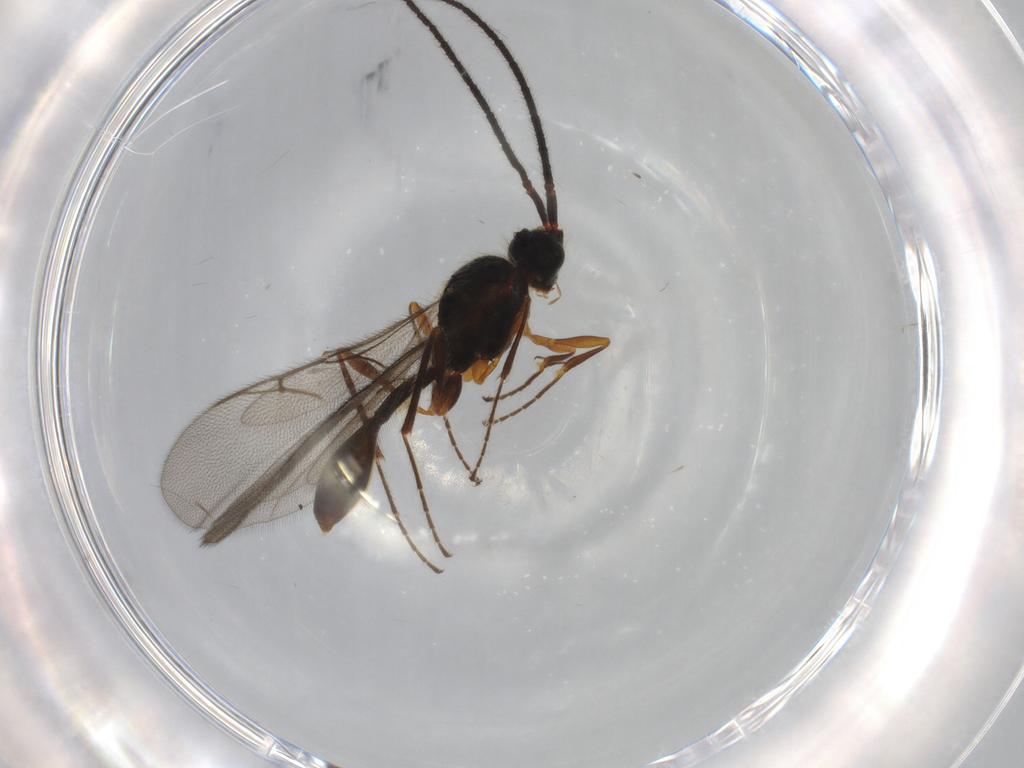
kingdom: Animalia
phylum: Arthropoda
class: Insecta
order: Hymenoptera
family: Diapriidae
